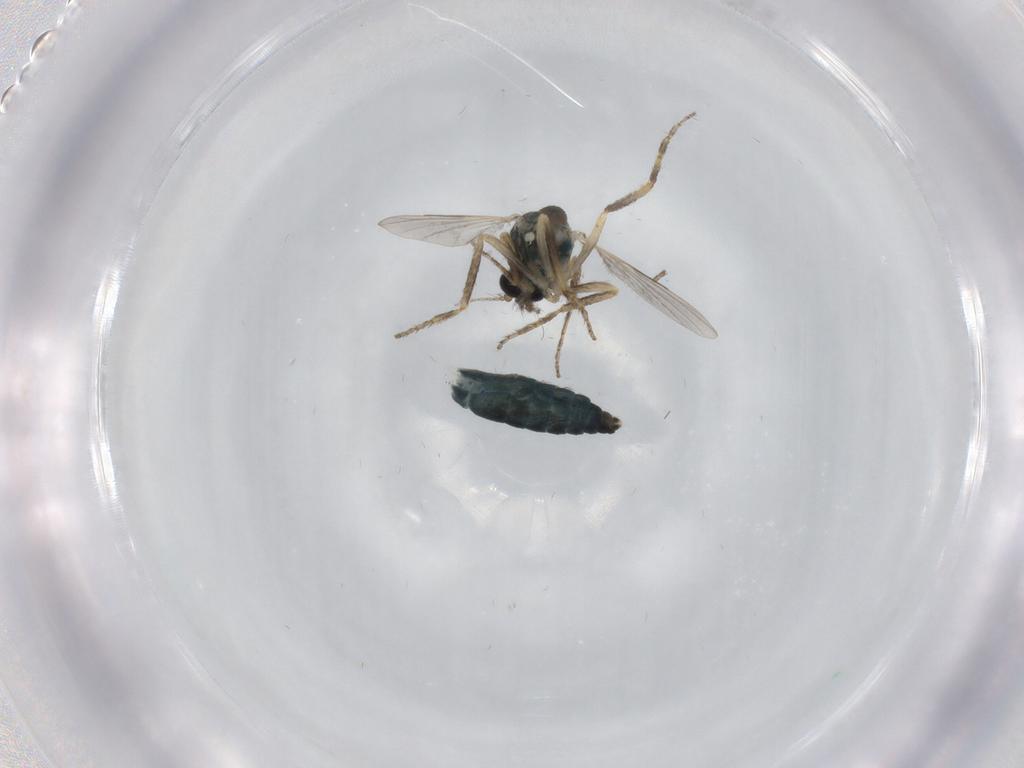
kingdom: Animalia
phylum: Arthropoda
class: Insecta
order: Diptera
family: Ceratopogonidae
